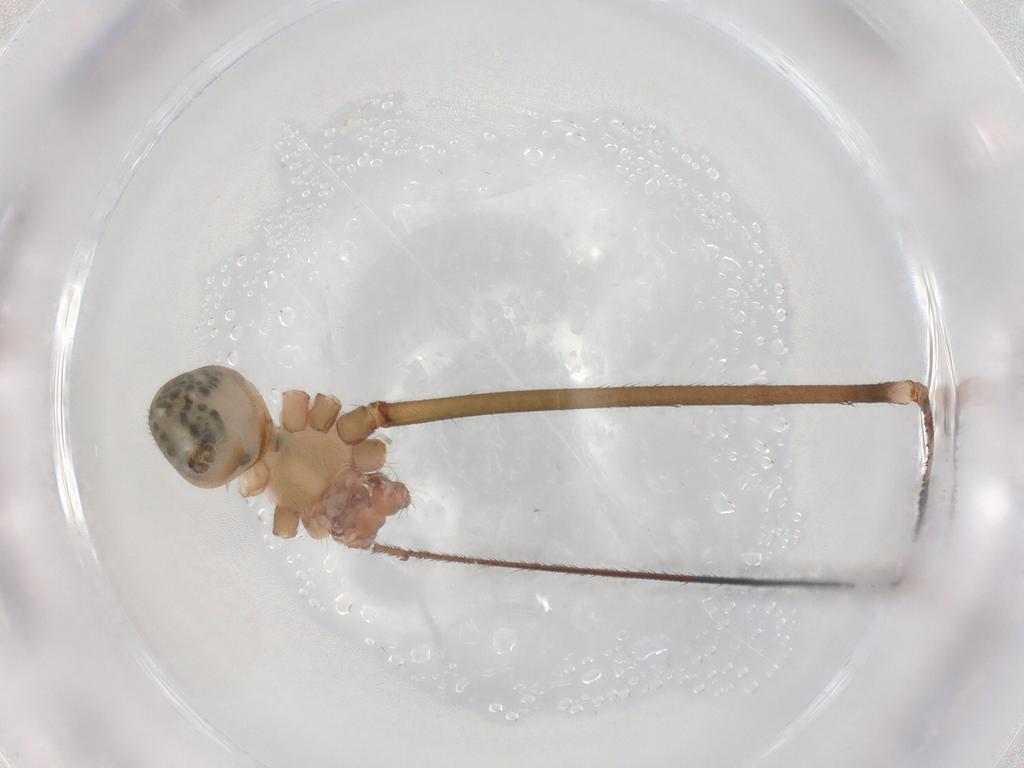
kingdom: Animalia
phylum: Arthropoda
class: Arachnida
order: Araneae
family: Pholcidae
